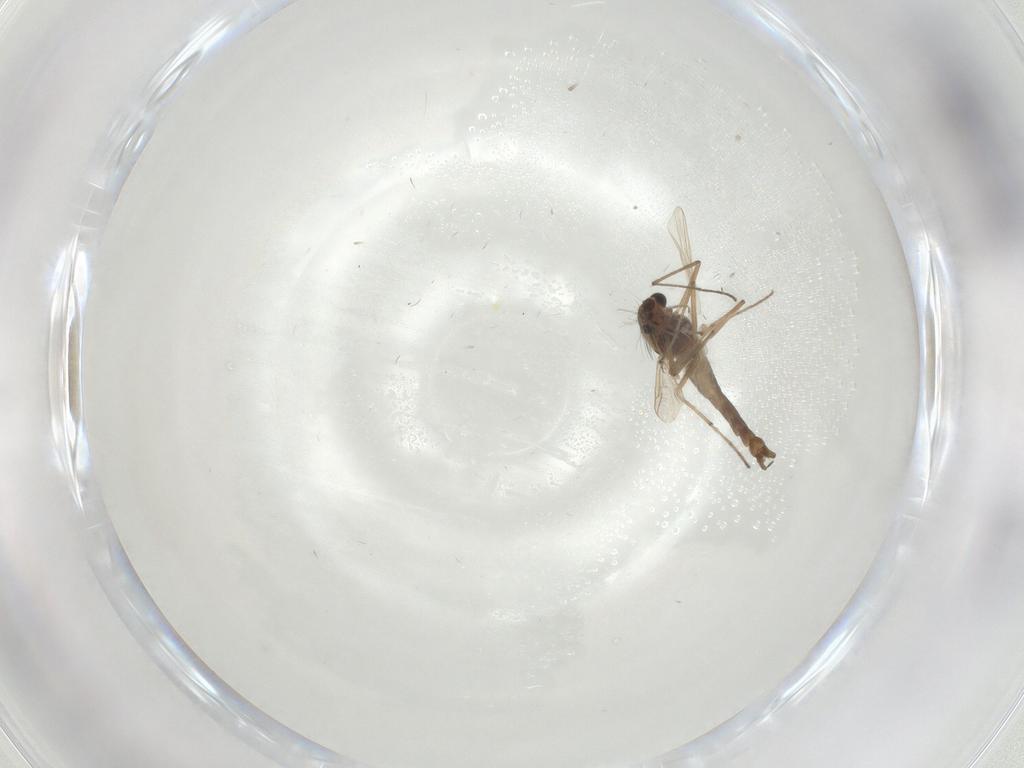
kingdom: Animalia
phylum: Arthropoda
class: Insecta
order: Diptera
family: Chironomidae
